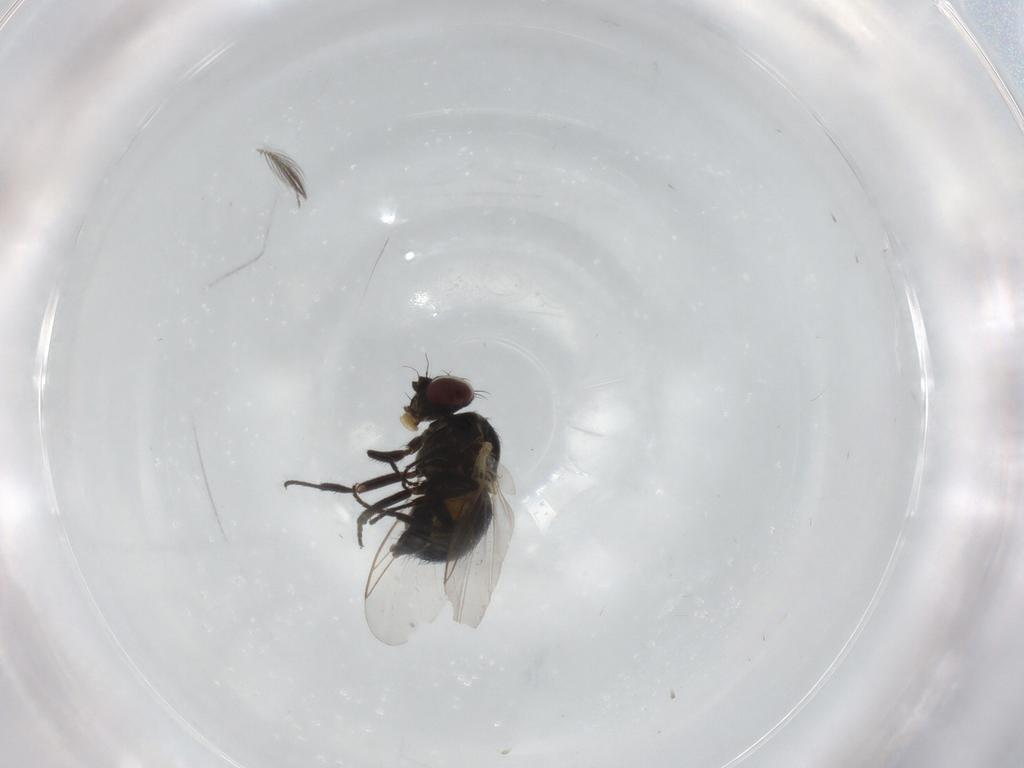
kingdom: Animalia
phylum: Arthropoda
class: Insecta
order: Diptera
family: Ceratopogonidae
